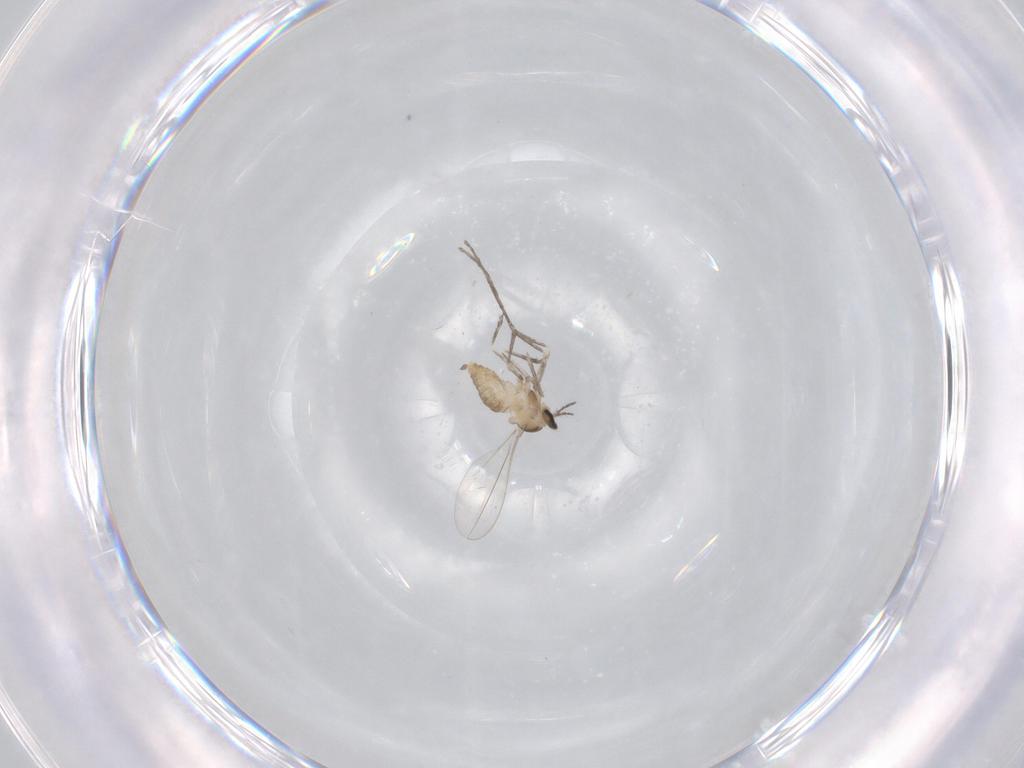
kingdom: Animalia
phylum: Arthropoda
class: Insecta
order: Diptera
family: Cecidomyiidae
